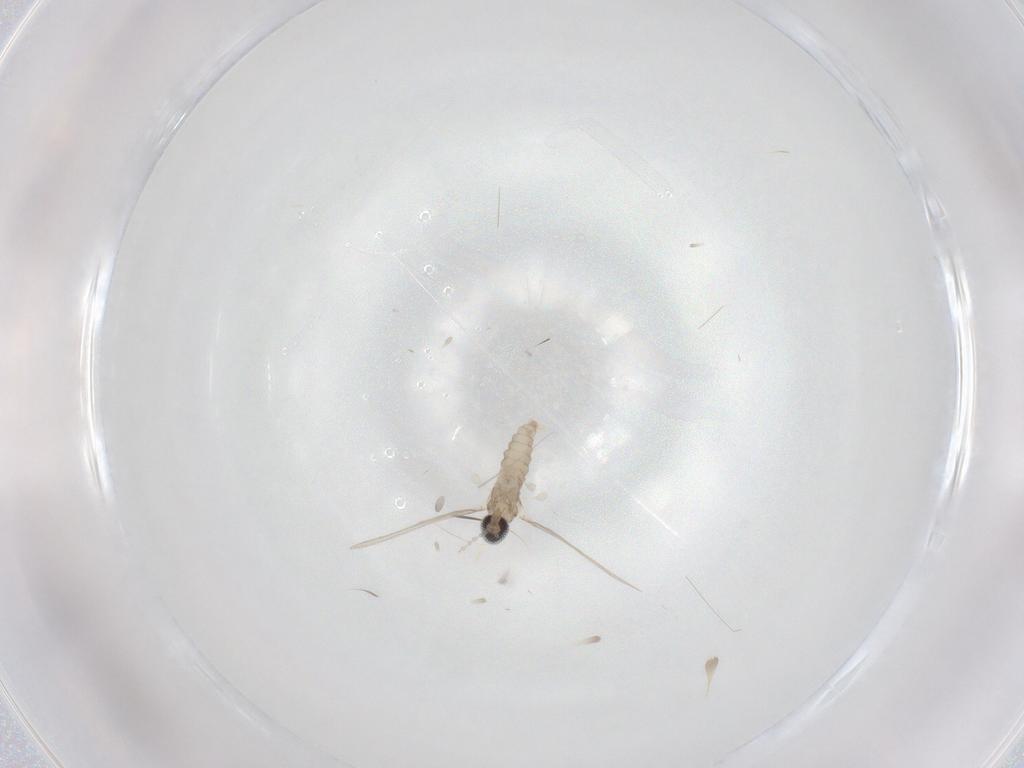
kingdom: Animalia
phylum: Arthropoda
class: Insecta
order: Diptera
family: Cecidomyiidae
